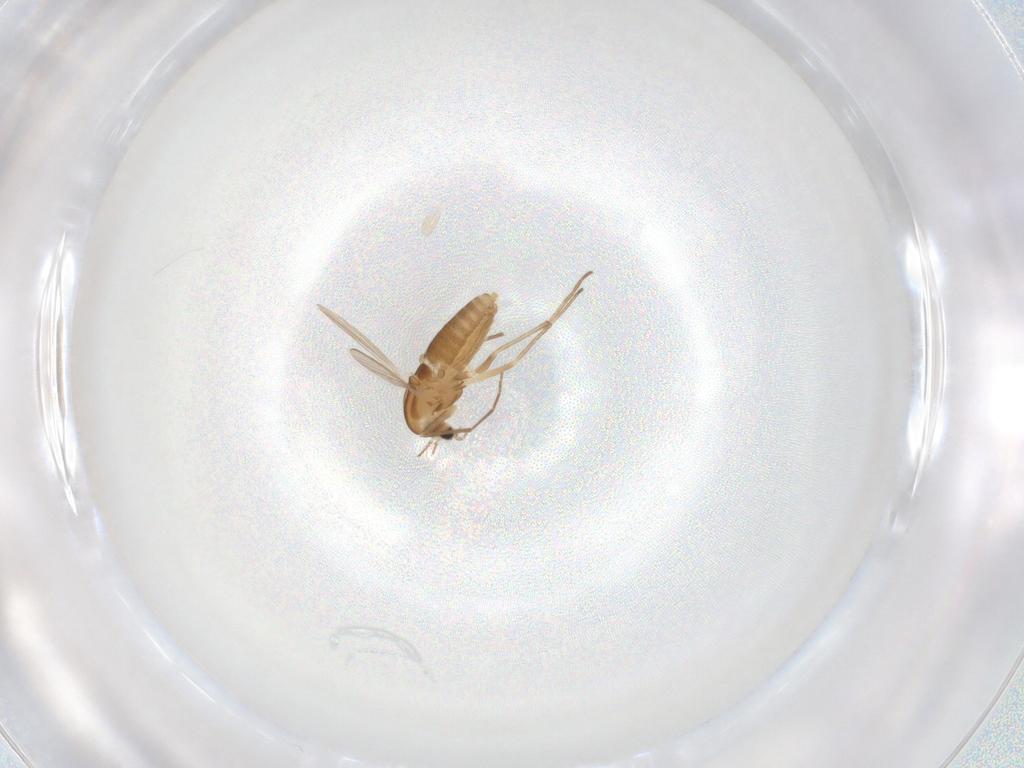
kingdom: Animalia
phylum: Arthropoda
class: Insecta
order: Diptera
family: Chironomidae
